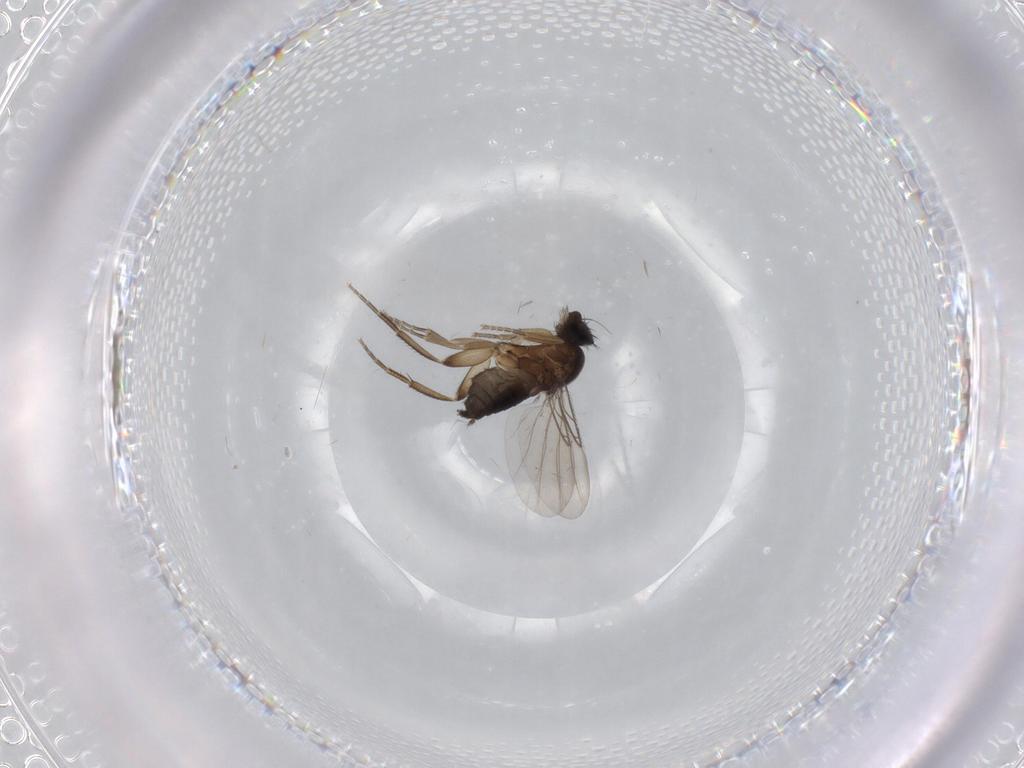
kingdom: Animalia
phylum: Arthropoda
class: Insecta
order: Diptera
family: Phoridae
